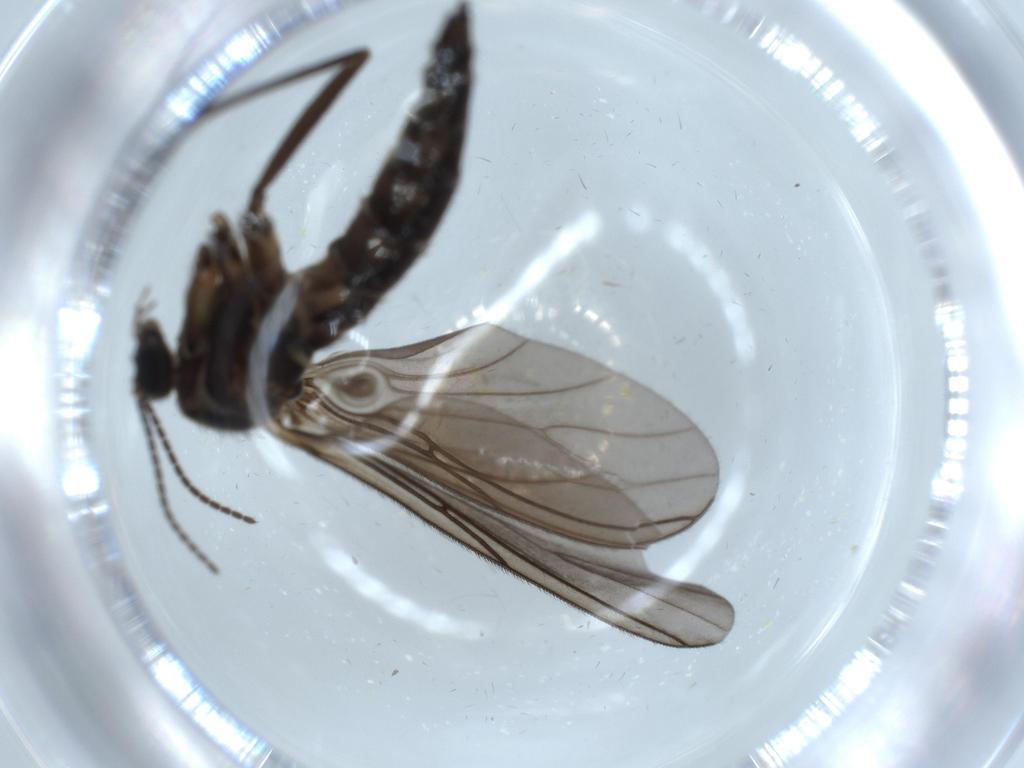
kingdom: Animalia
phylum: Arthropoda
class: Insecta
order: Diptera
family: Sciaridae
